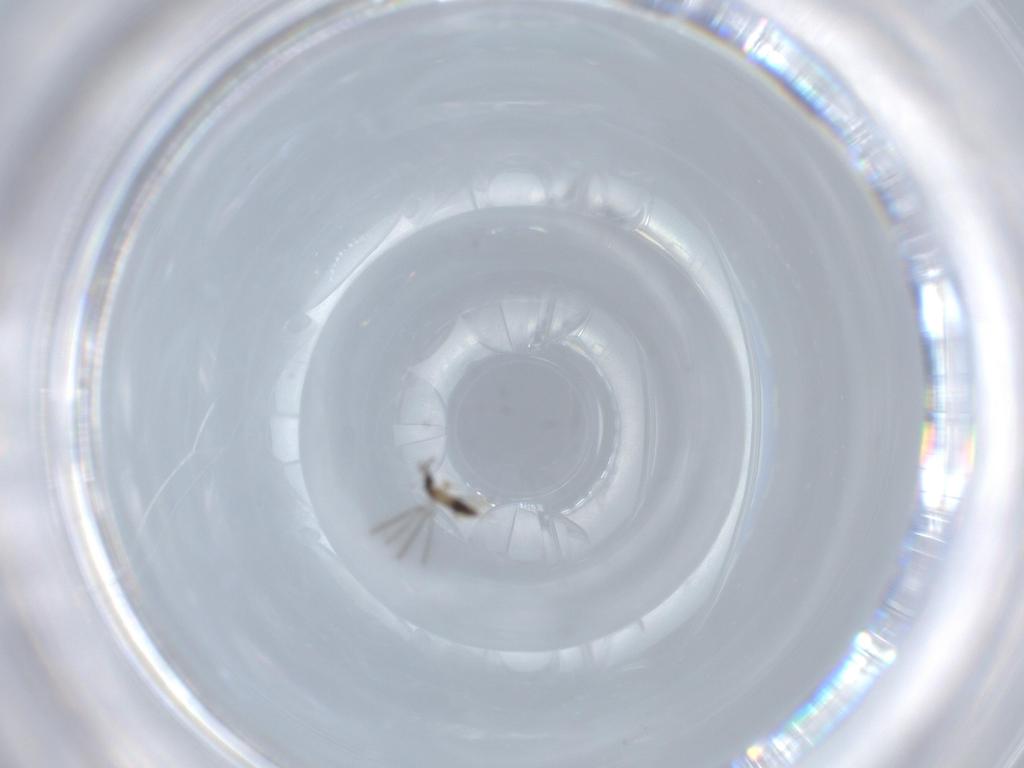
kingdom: Animalia
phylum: Arthropoda
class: Insecta
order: Hymenoptera
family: Mymaridae
